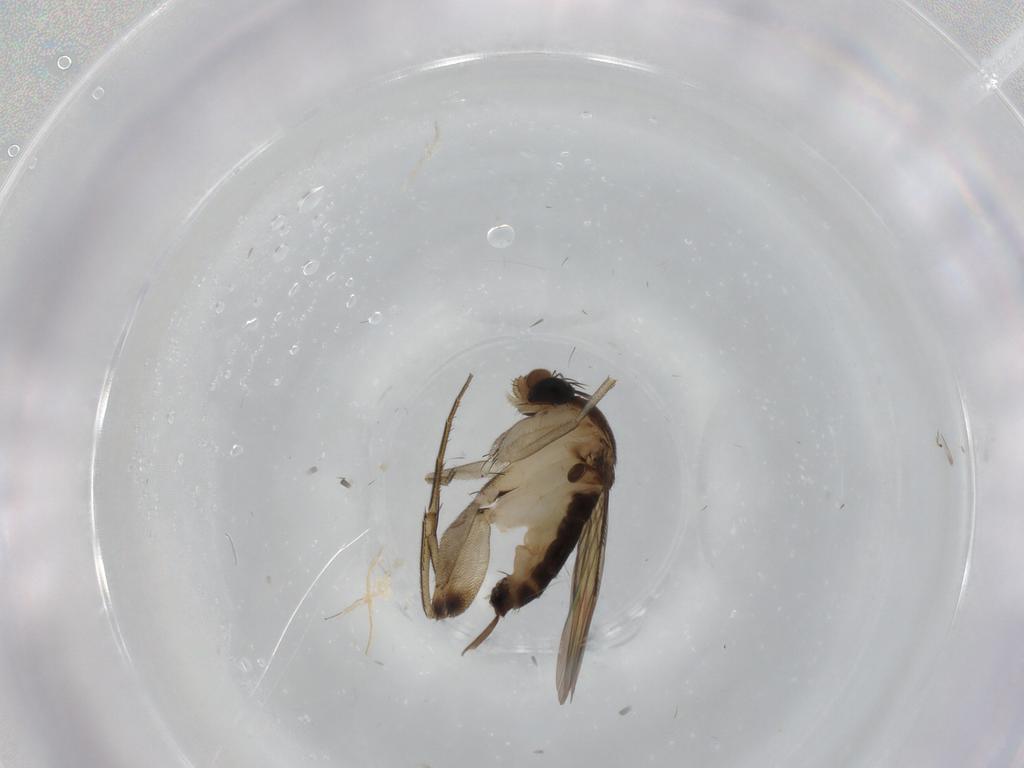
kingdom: Animalia
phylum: Arthropoda
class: Insecta
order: Diptera
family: Phoridae
